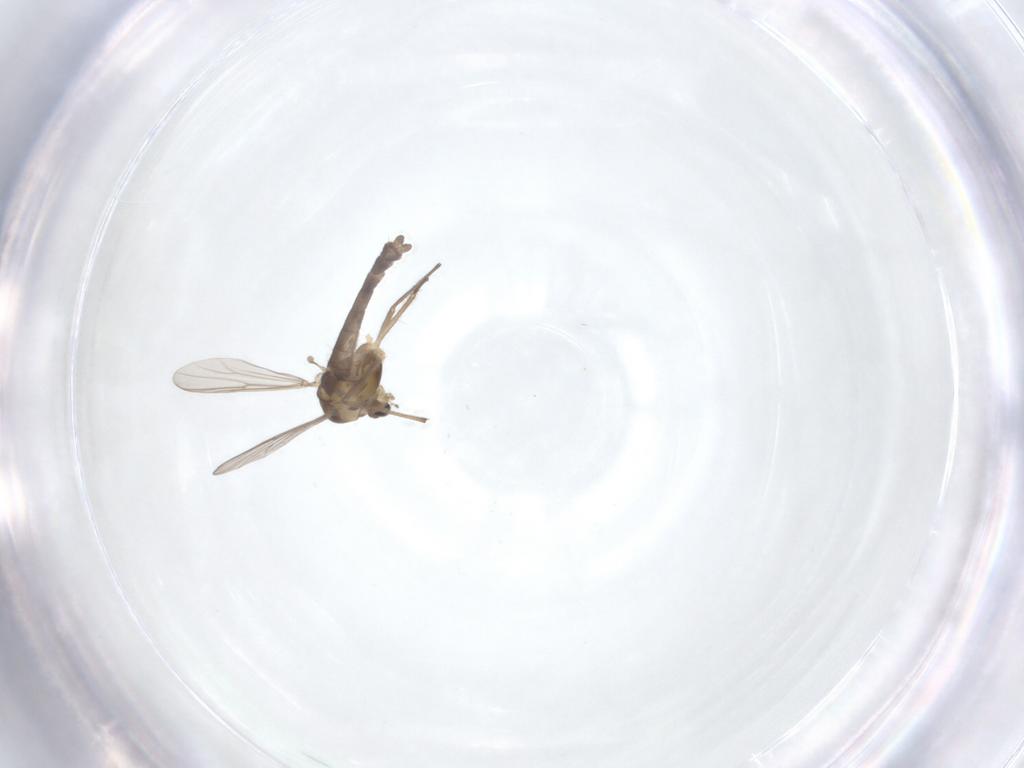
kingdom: Animalia
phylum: Arthropoda
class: Insecta
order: Diptera
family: Chironomidae
